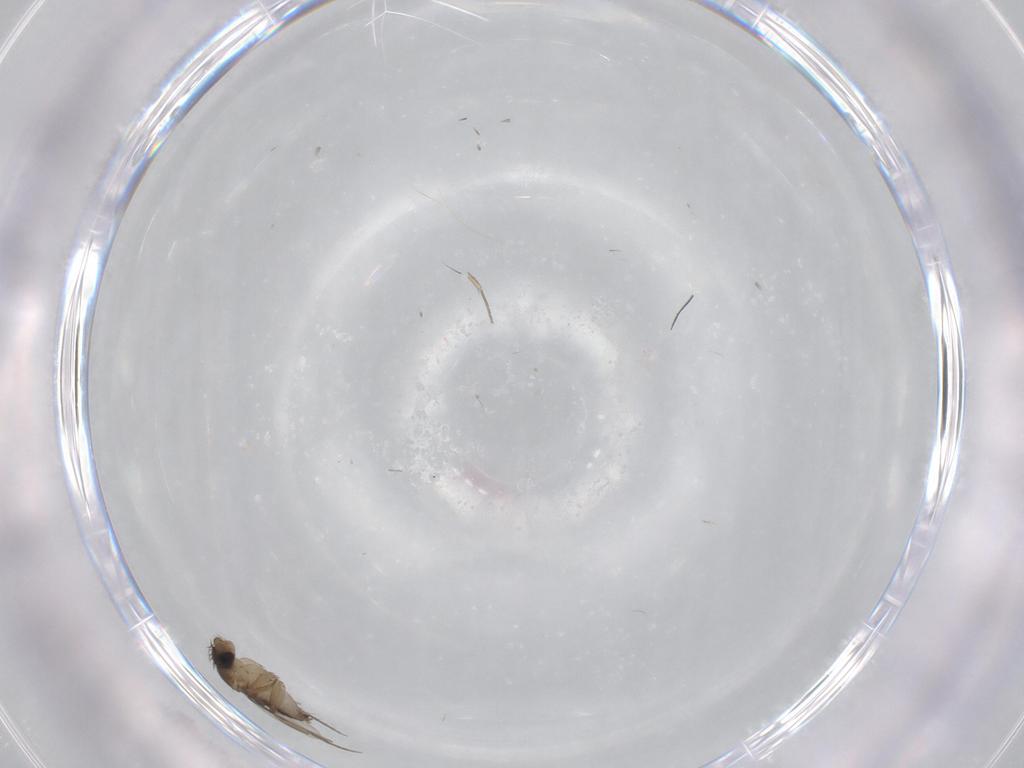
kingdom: Animalia
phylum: Arthropoda
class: Insecta
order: Diptera
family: Phoridae
